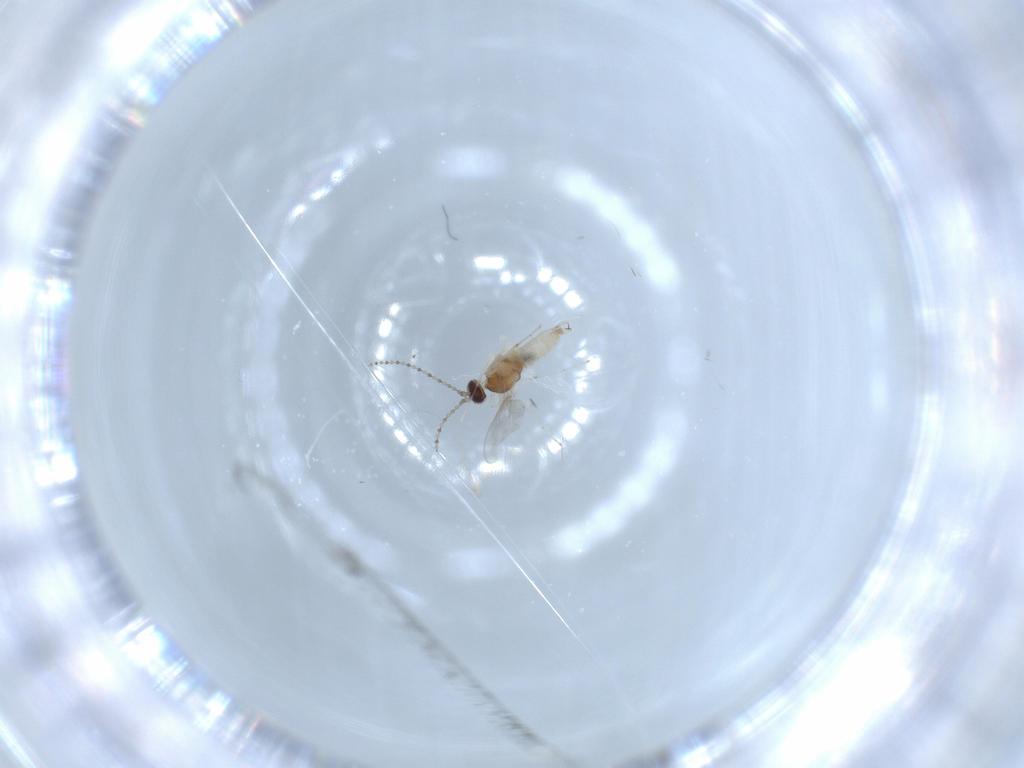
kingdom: Animalia
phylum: Arthropoda
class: Insecta
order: Diptera
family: Cecidomyiidae
